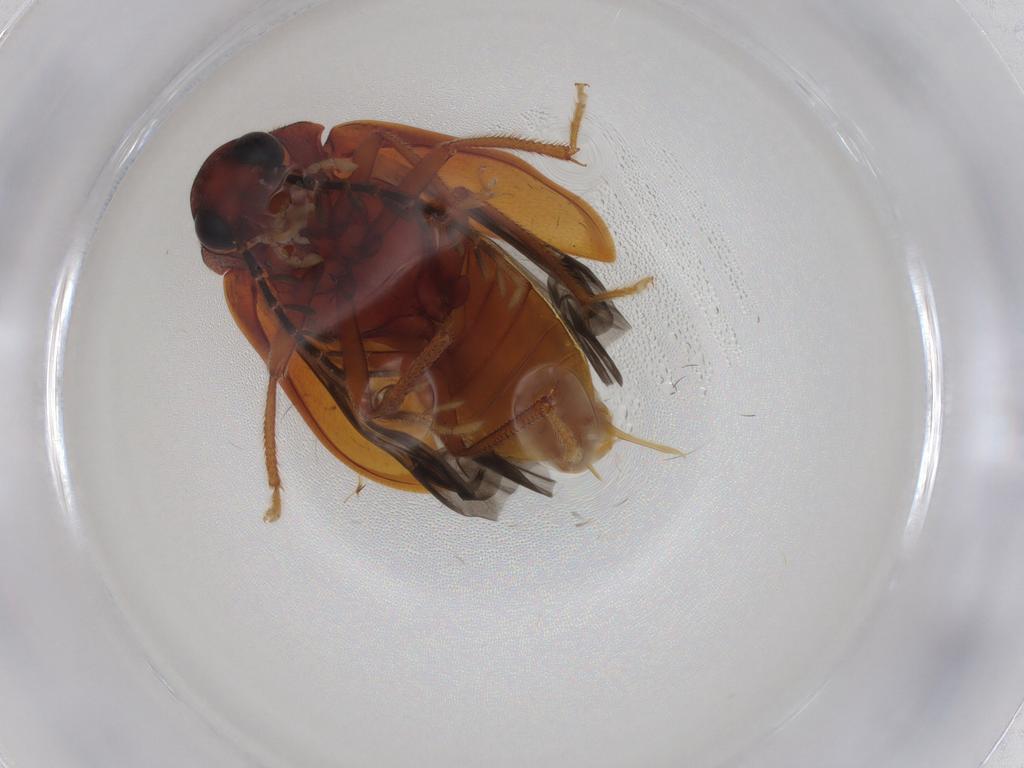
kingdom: Animalia
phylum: Arthropoda
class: Insecta
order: Coleoptera
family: Ptilodactylidae
